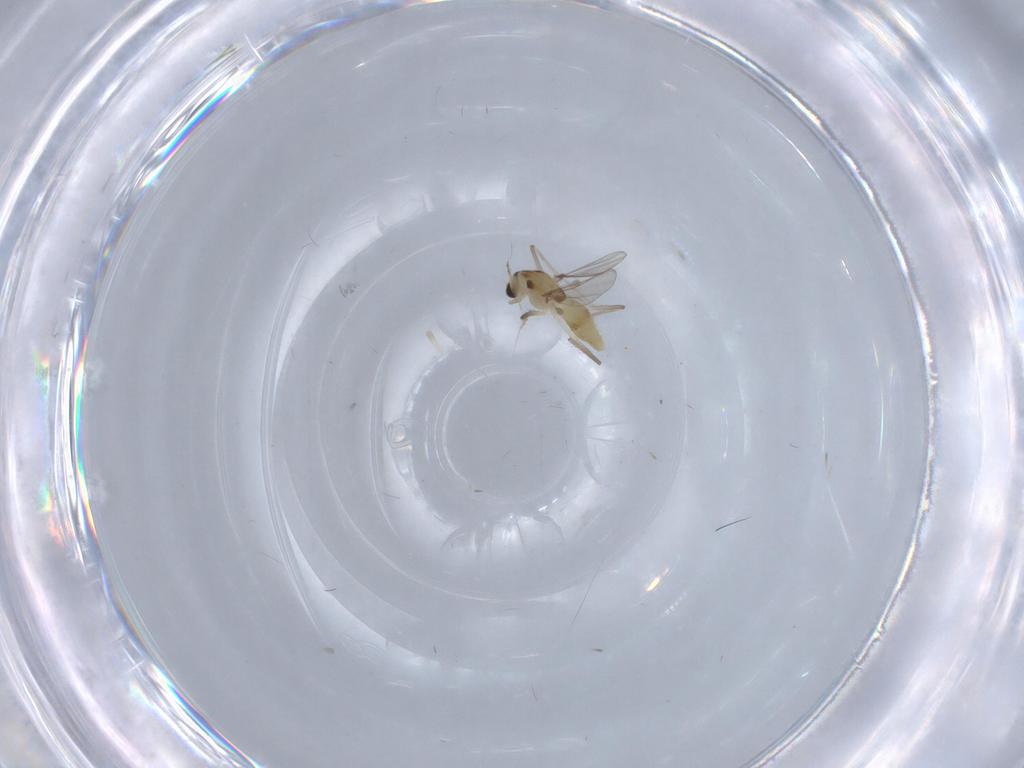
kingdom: Animalia
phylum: Arthropoda
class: Insecta
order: Diptera
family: Chironomidae
